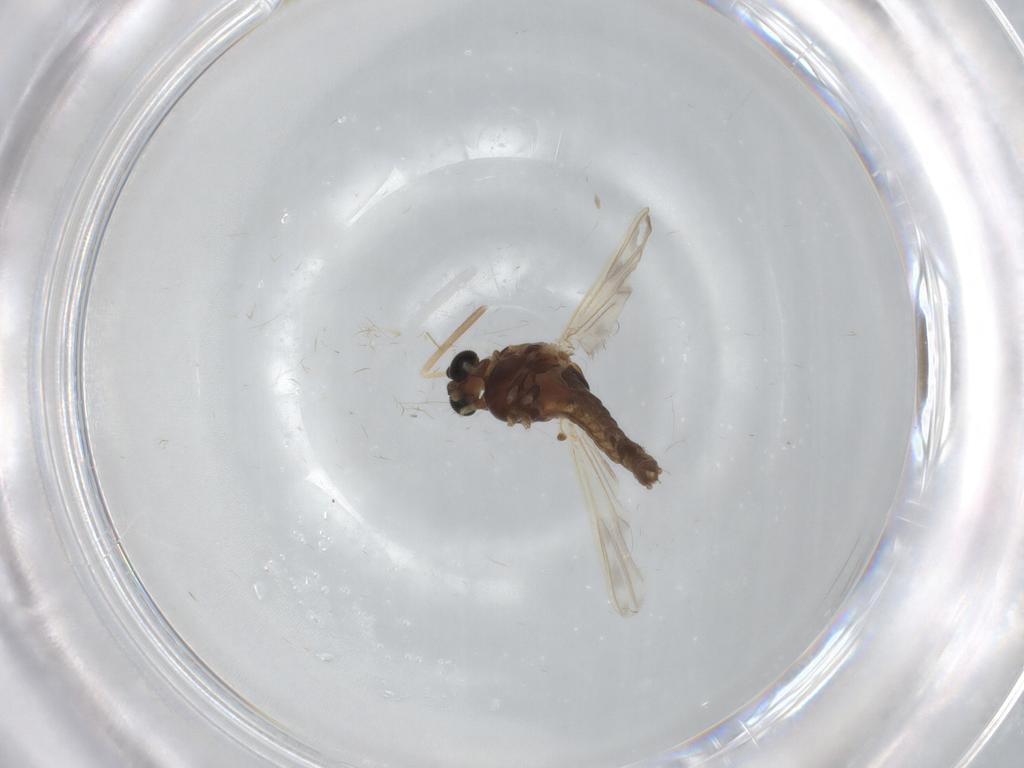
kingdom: Animalia
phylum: Arthropoda
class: Insecta
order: Diptera
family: Chironomidae
